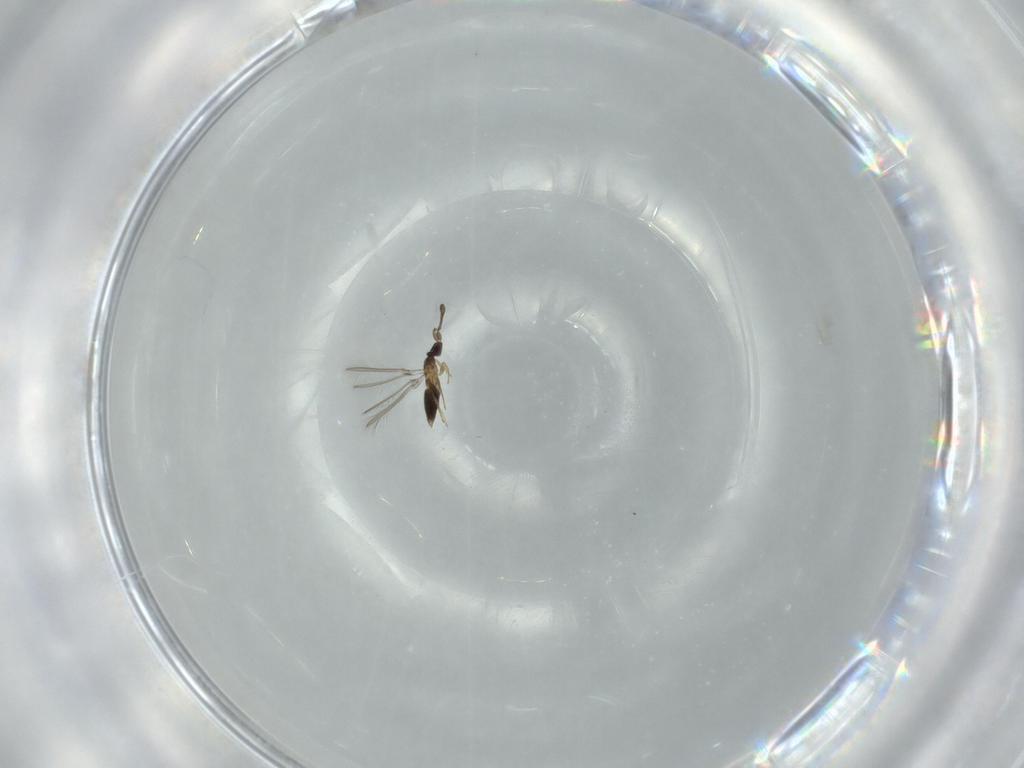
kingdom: Animalia
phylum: Arthropoda
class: Insecta
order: Hymenoptera
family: Mymaridae
